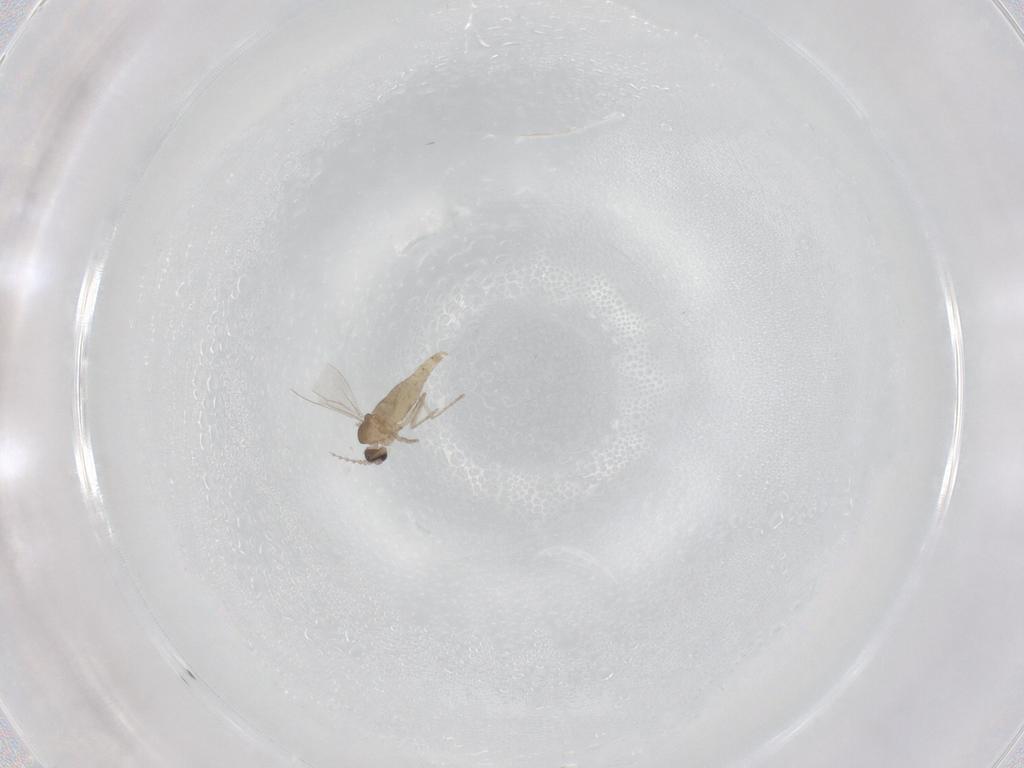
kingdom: Animalia
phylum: Arthropoda
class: Insecta
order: Diptera
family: Cecidomyiidae
